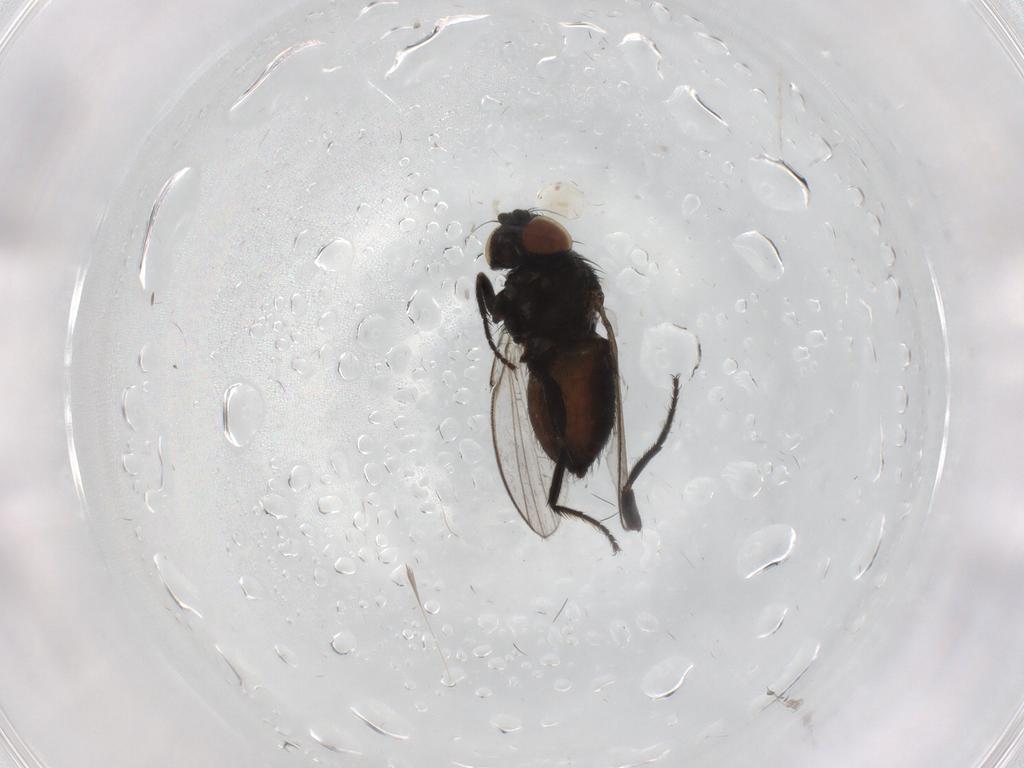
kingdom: Animalia
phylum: Arthropoda
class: Insecta
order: Diptera
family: Milichiidae
